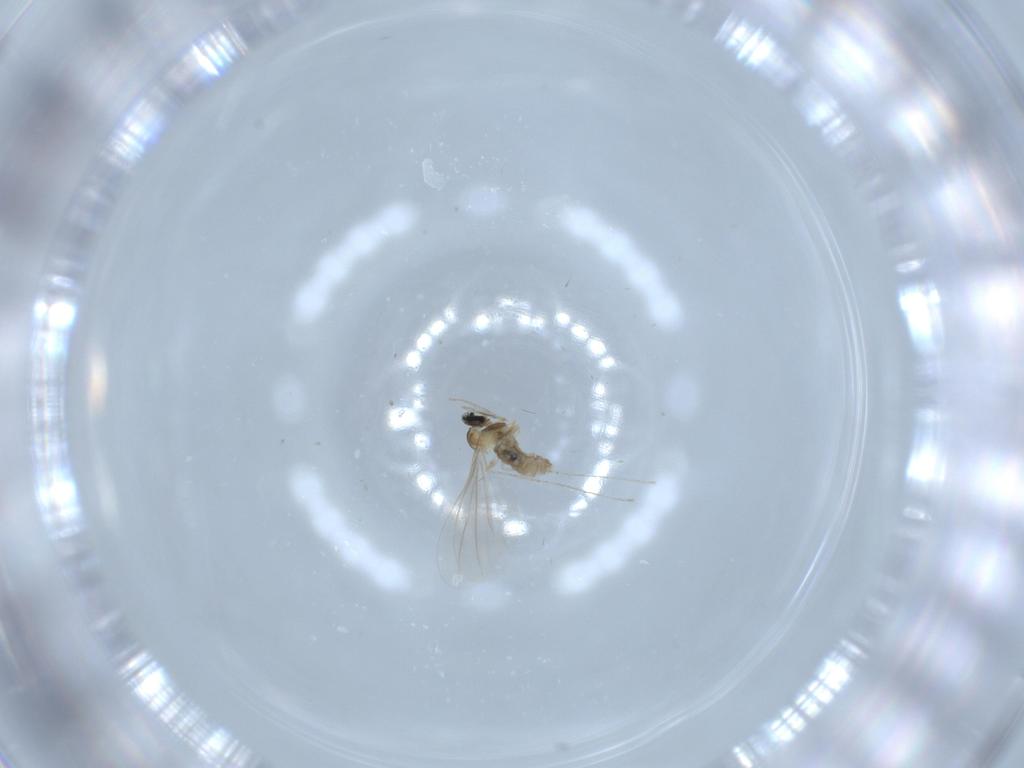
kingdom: Animalia
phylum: Arthropoda
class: Insecta
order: Diptera
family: Cecidomyiidae
